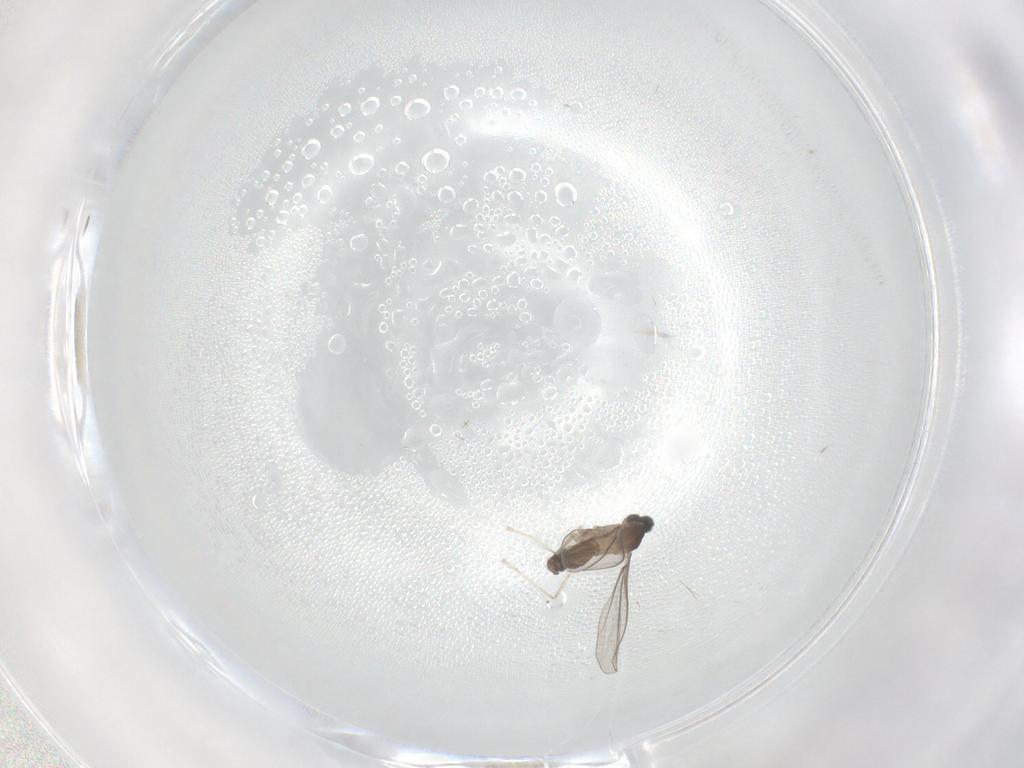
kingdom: Animalia
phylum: Arthropoda
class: Insecta
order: Diptera
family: Cecidomyiidae
